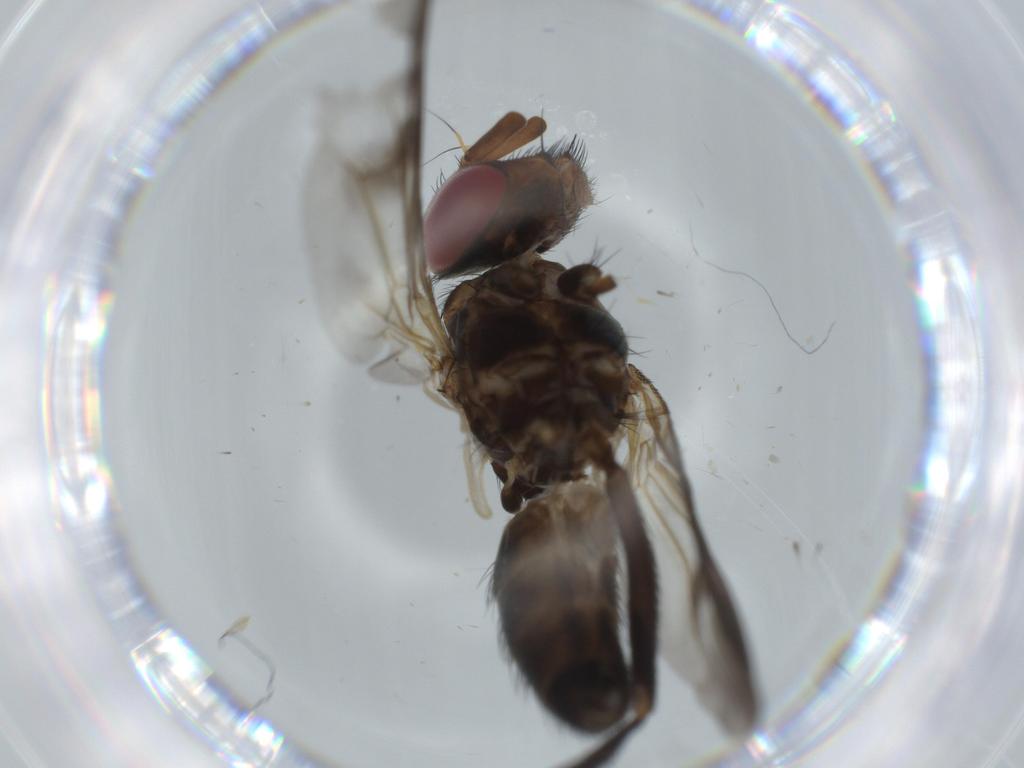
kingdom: Animalia
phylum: Arthropoda
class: Insecta
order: Diptera
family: Calliphoridae
